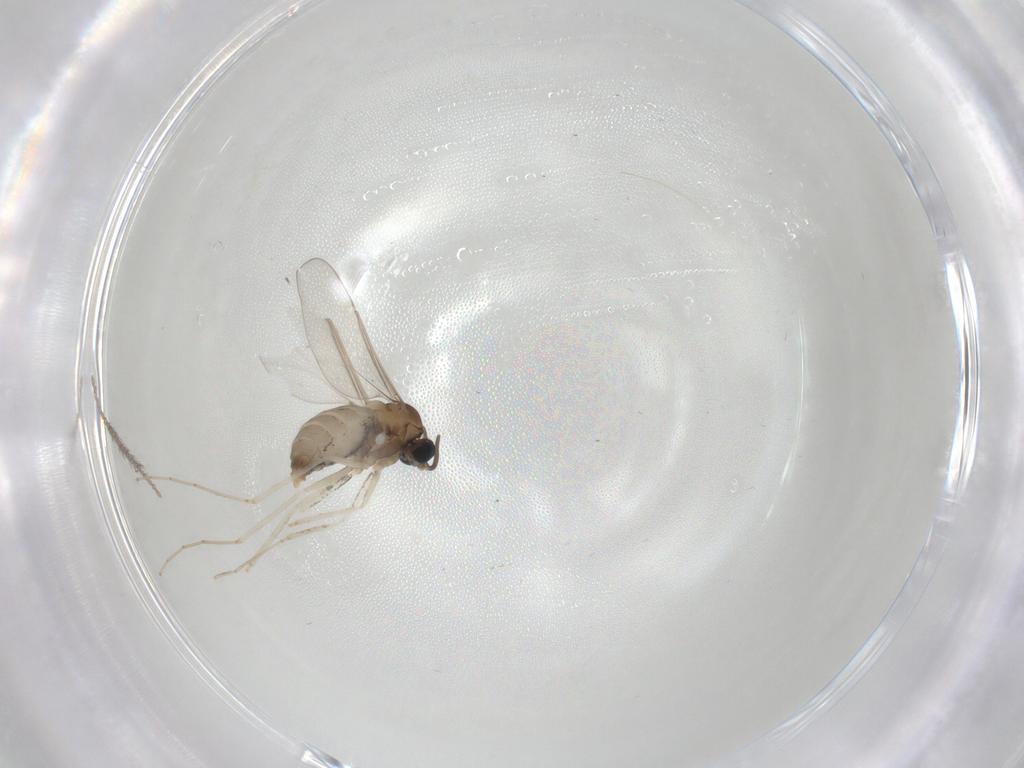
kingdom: Animalia
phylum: Arthropoda
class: Insecta
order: Diptera
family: Cecidomyiidae
